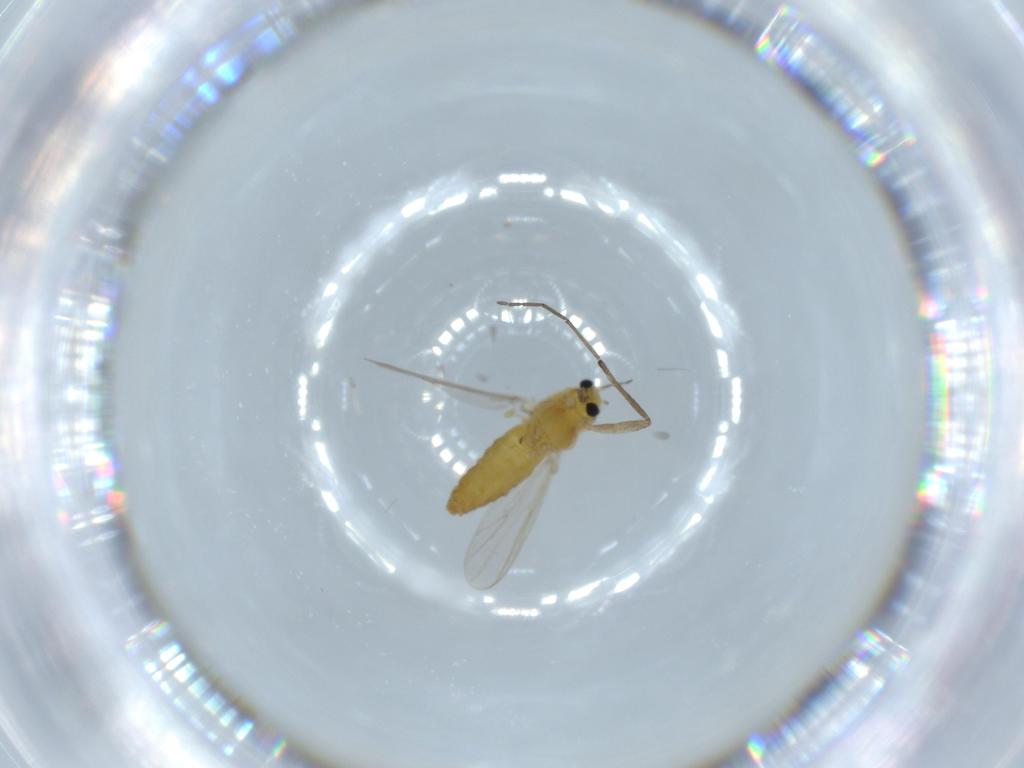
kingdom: Animalia
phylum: Arthropoda
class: Insecta
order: Diptera
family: Chironomidae
